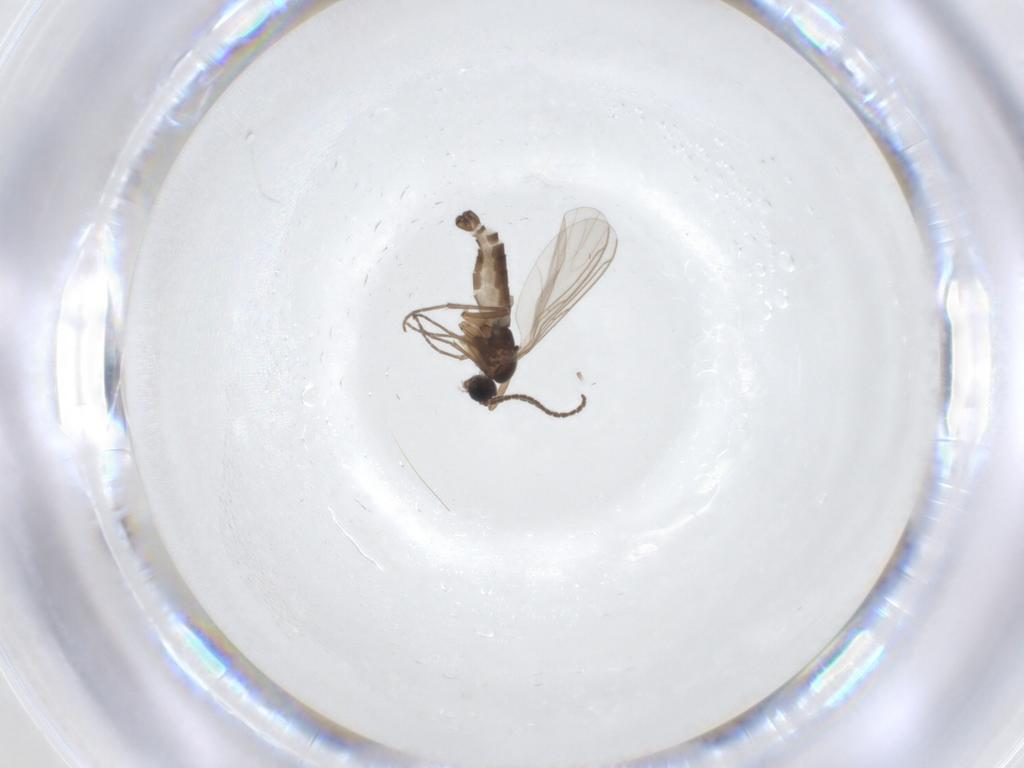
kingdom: Animalia
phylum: Arthropoda
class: Insecta
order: Diptera
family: Sciaridae
